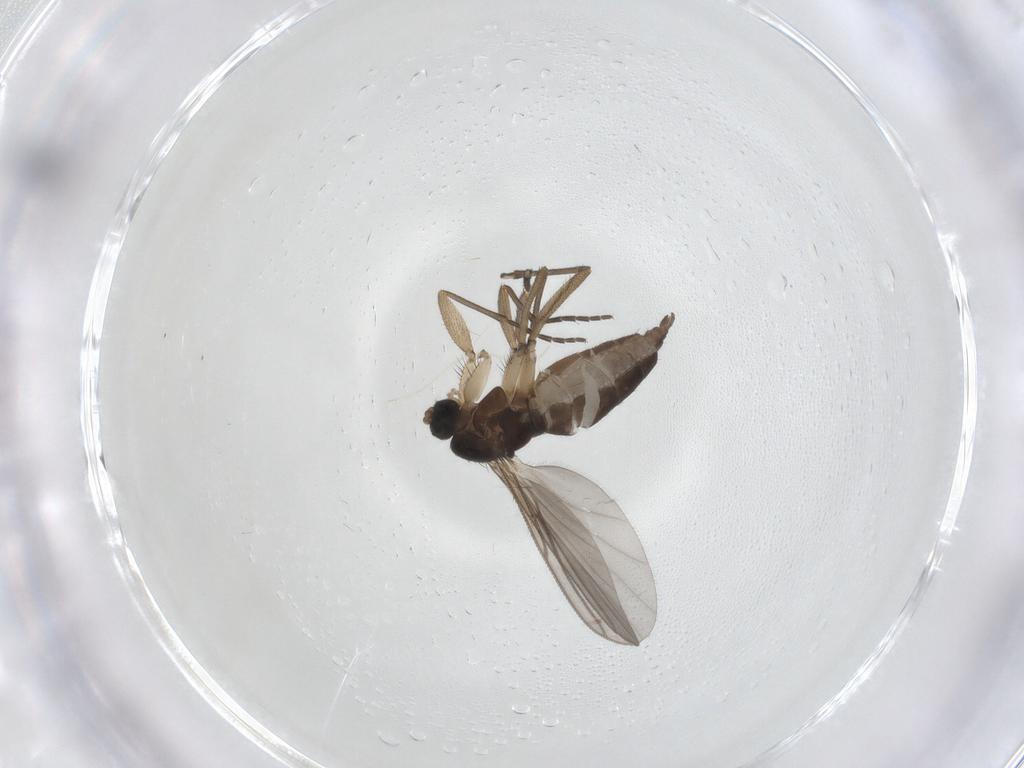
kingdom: Animalia
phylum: Arthropoda
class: Insecta
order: Diptera
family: Sciaridae
